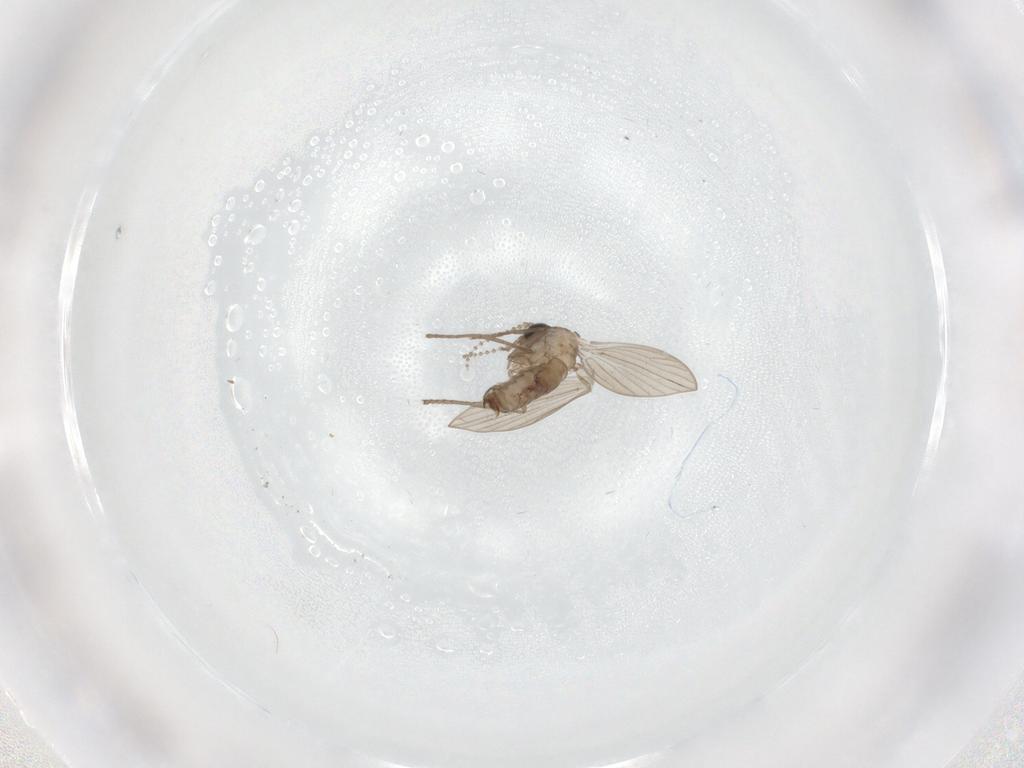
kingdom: Animalia
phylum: Arthropoda
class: Insecta
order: Diptera
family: Psychodidae
